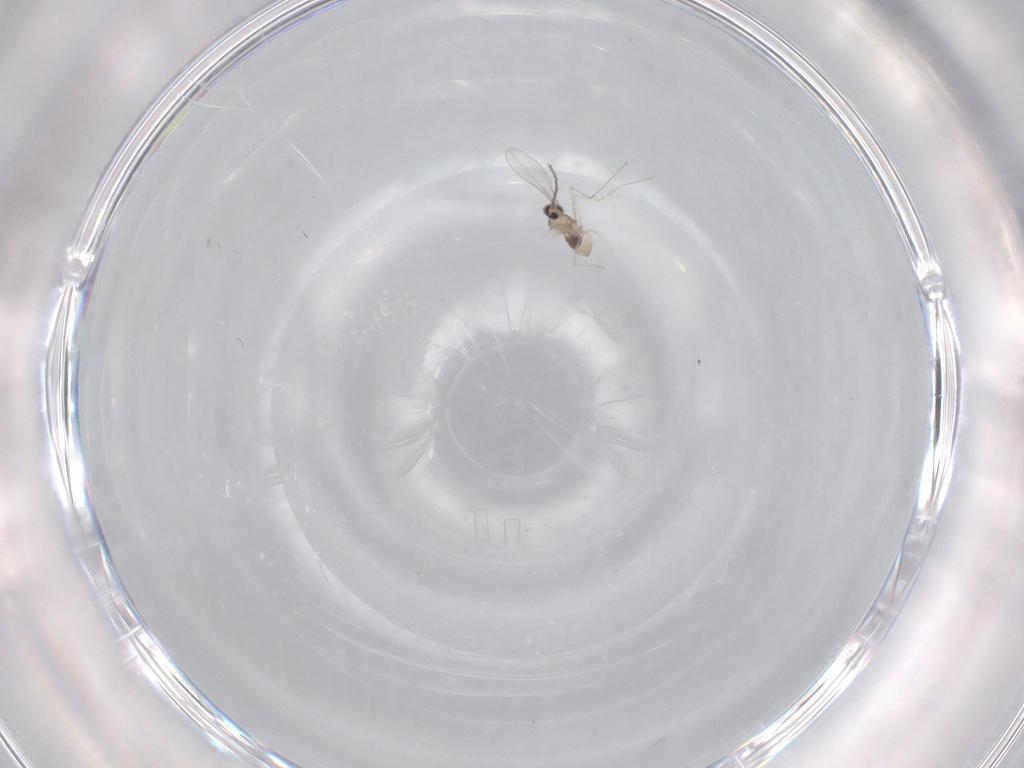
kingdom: Animalia
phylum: Arthropoda
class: Insecta
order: Diptera
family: Cecidomyiidae
